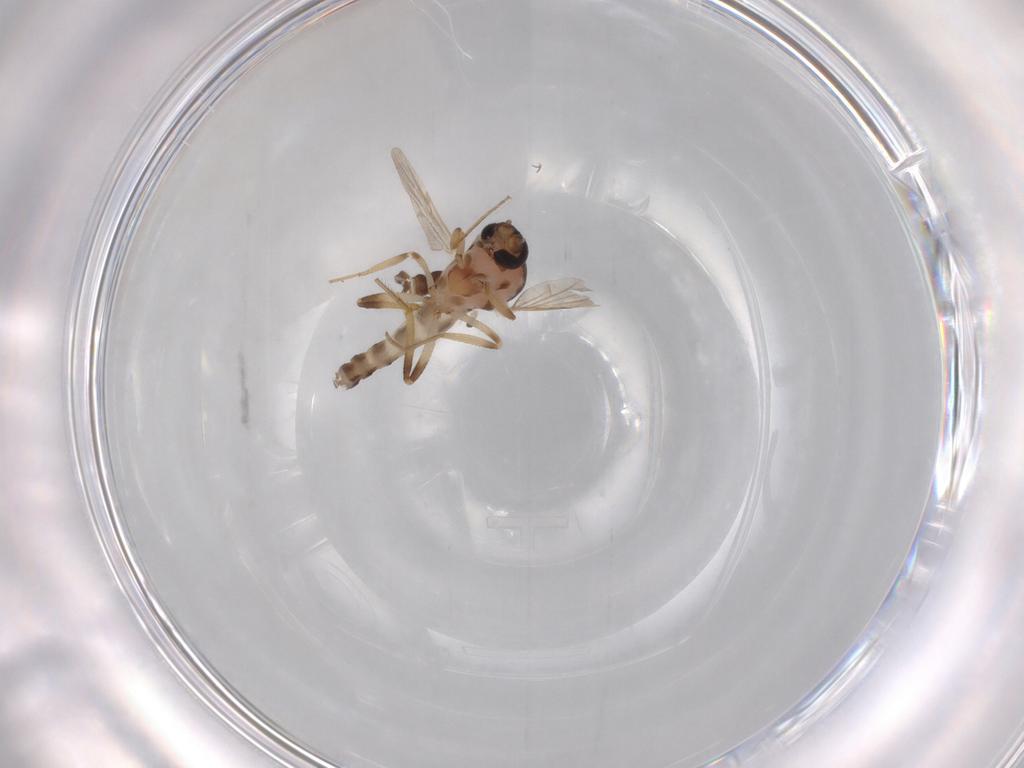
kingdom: Animalia
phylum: Arthropoda
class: Insecta
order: Diptera
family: Ceratopogonidae
